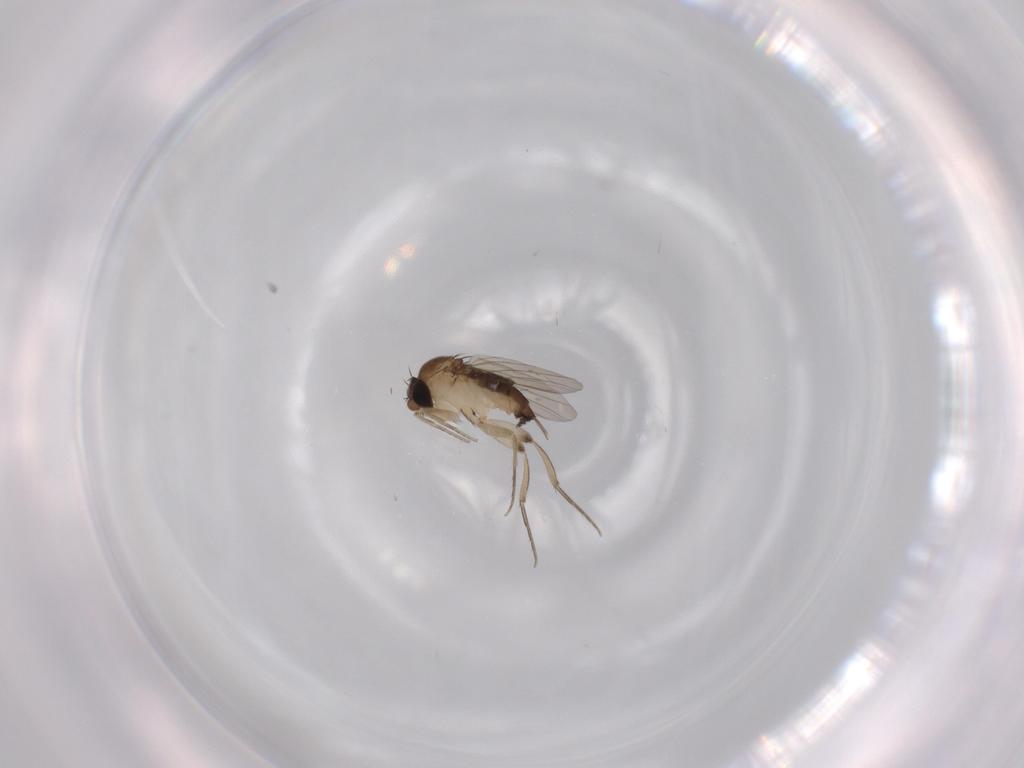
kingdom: Animalia
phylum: Arthropoda
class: Insecta
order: Diptera
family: Phoridae
